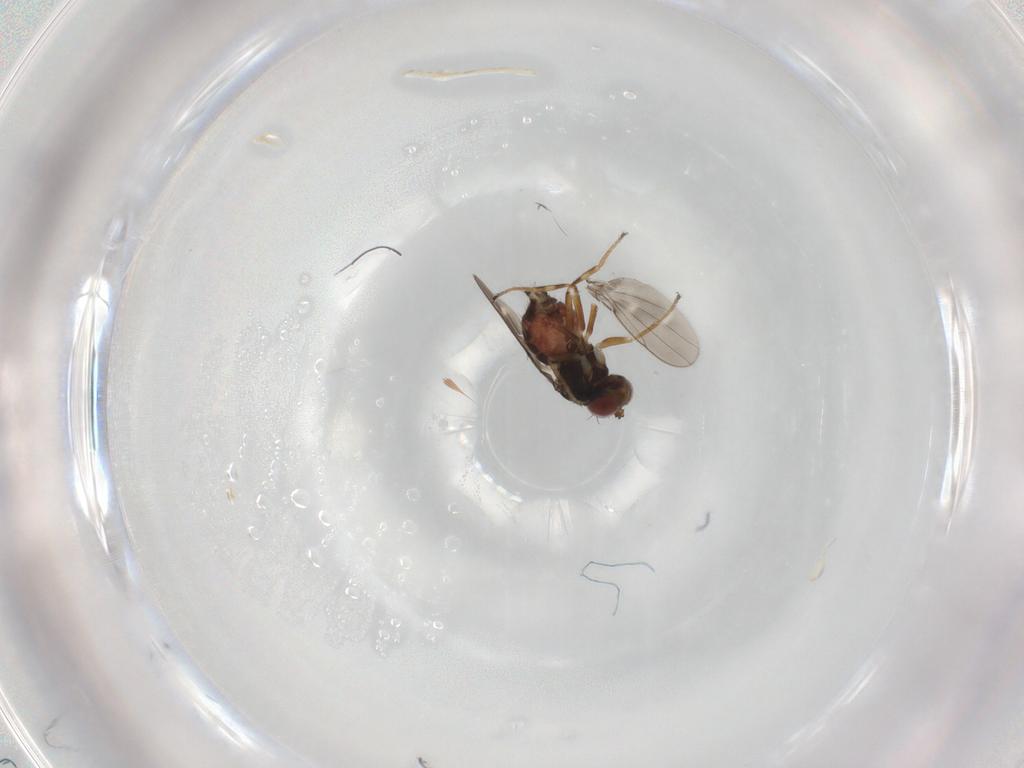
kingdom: Animalia
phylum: Arthropoda
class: Insecta
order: Diptera
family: Ephydridae
